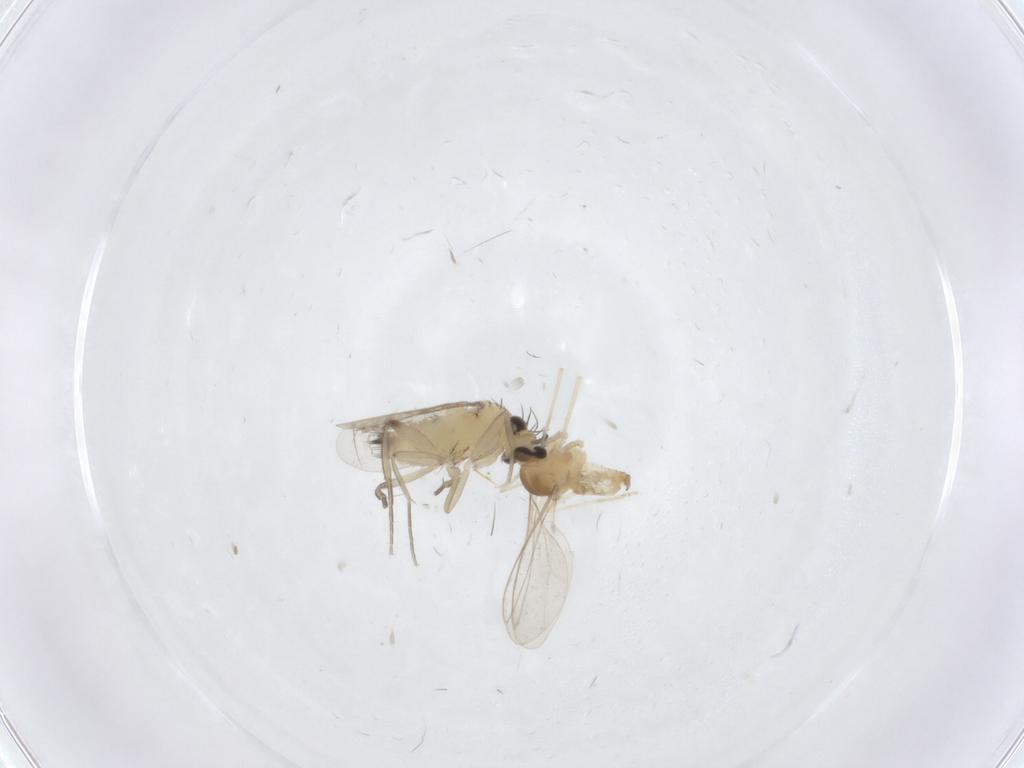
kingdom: Animalia
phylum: Arthropoda
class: Insecta
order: Diptera
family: Phoridae
